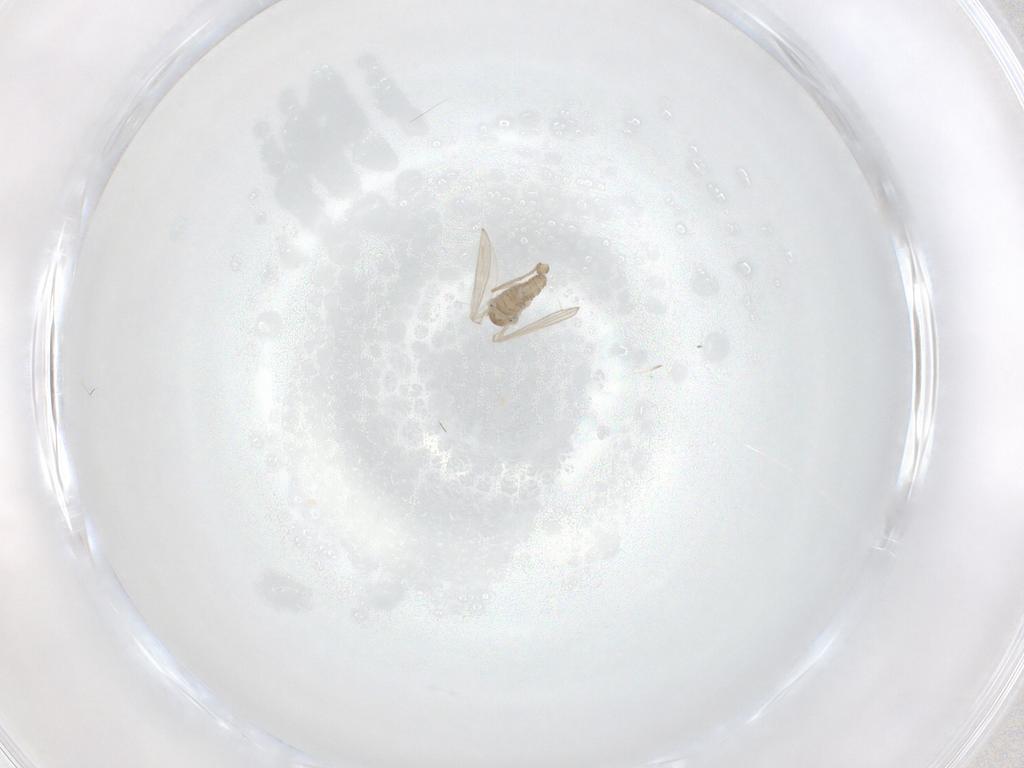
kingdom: Animalia
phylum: Arthropoda
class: Insecta
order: Diptera
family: Psychodidae
